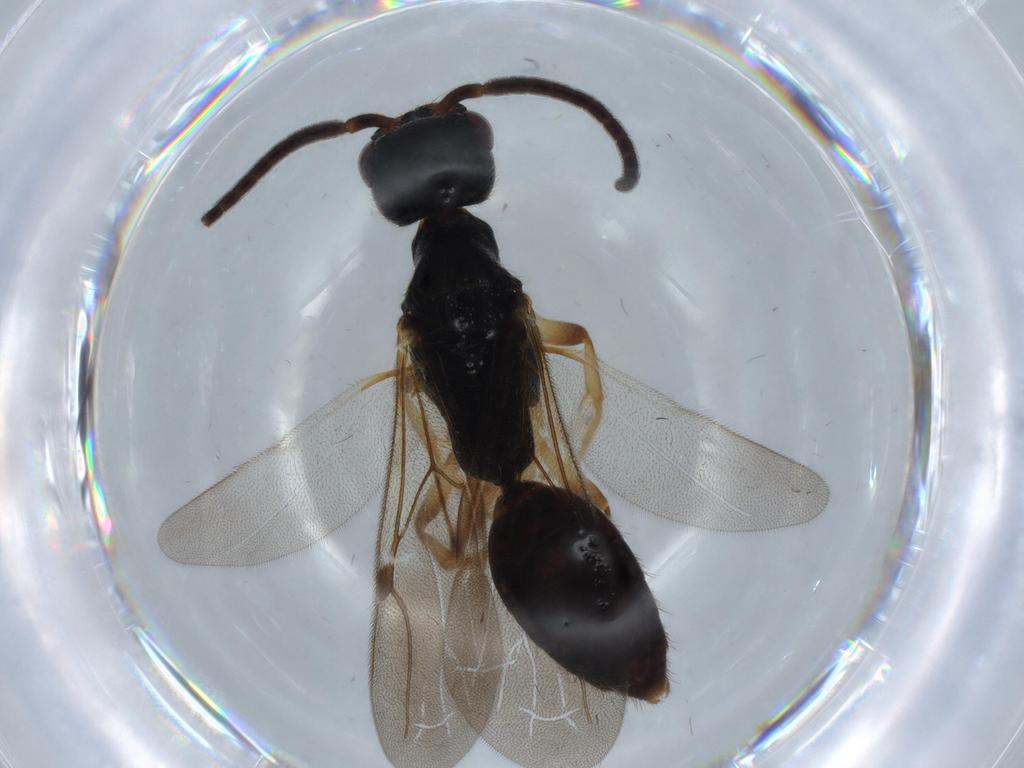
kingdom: Animalia
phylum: Arthropoda
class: Insecta
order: Hymenoptera
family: Bethylidae
